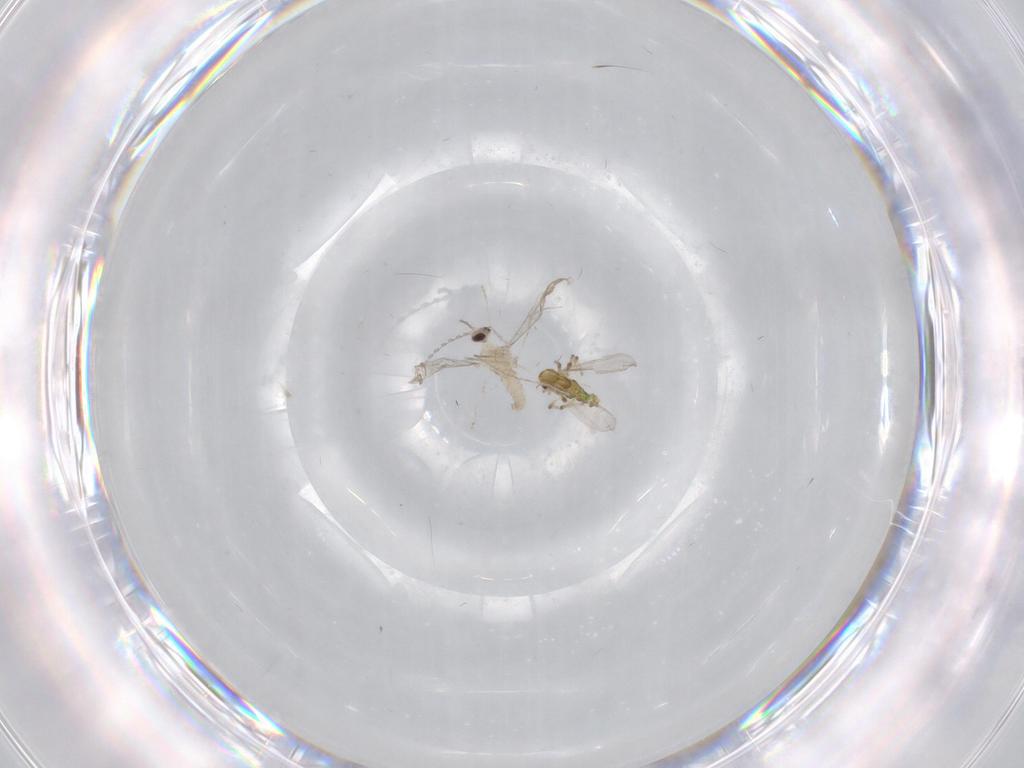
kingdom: Animalia
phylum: Arthropoda
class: Insecta
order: Diptera
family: Chironomidae
